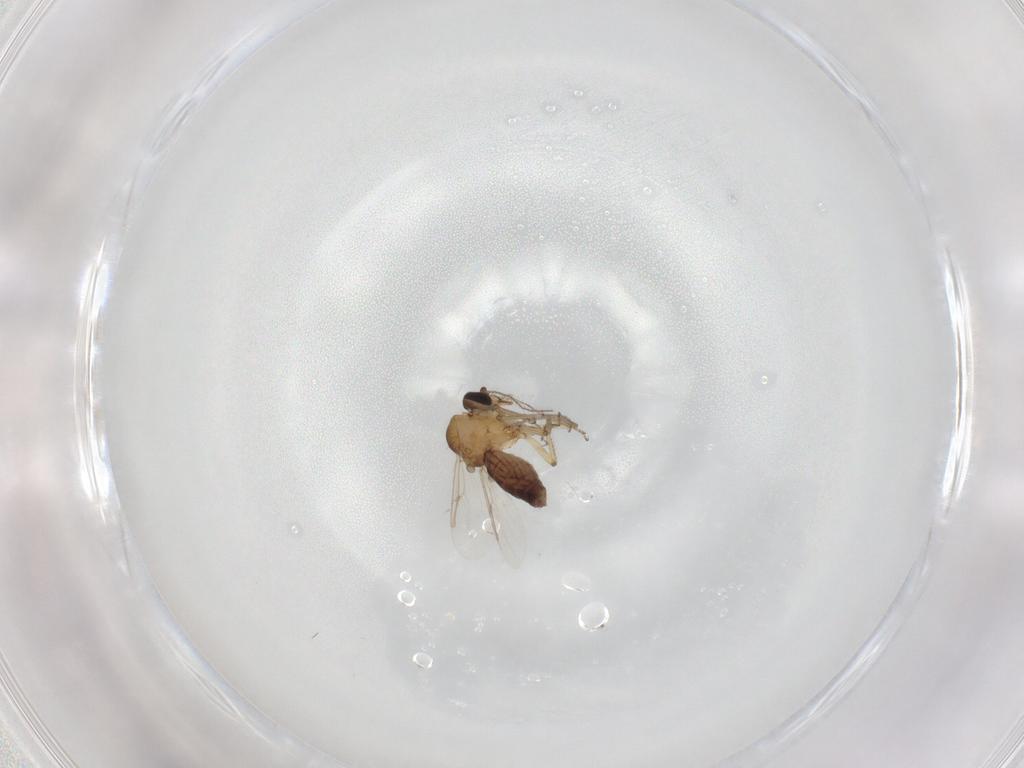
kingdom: Animalia
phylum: Arthropoda
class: Insecta
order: Diptera
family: Ceratopogonidae
